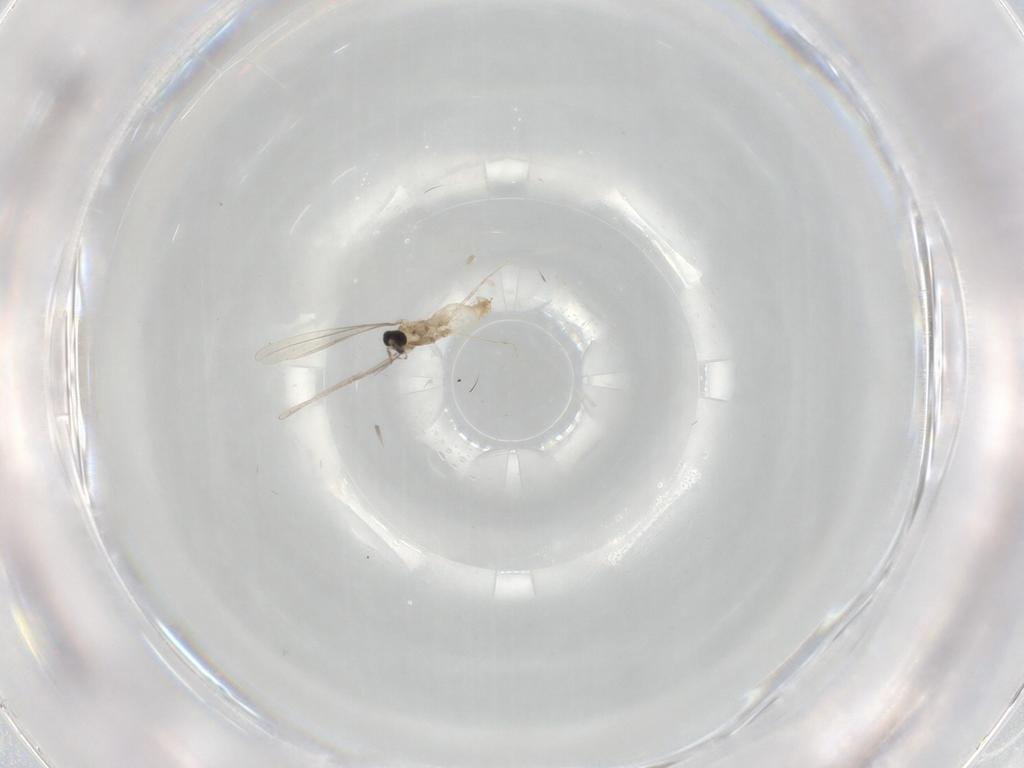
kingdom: Animalia
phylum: Arthropoda
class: Insecta
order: Diptera
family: Cecidomyiidae
